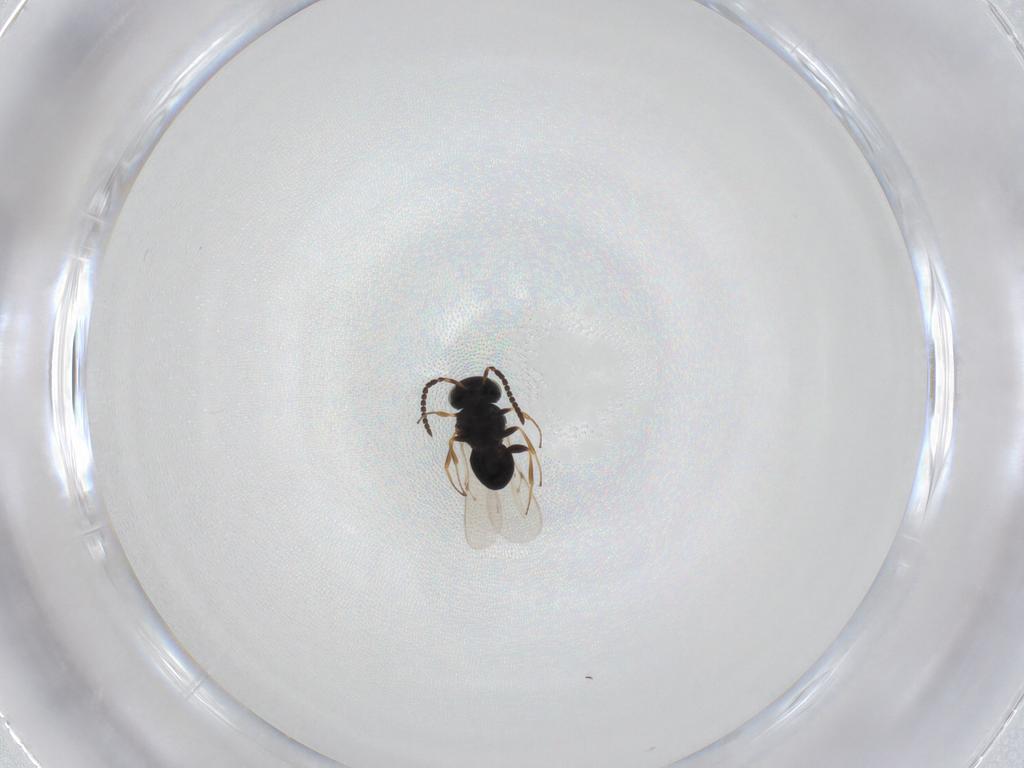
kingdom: Animalia
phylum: Arthropoda
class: Insecta
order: Hymenoptera
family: Scelionidae
